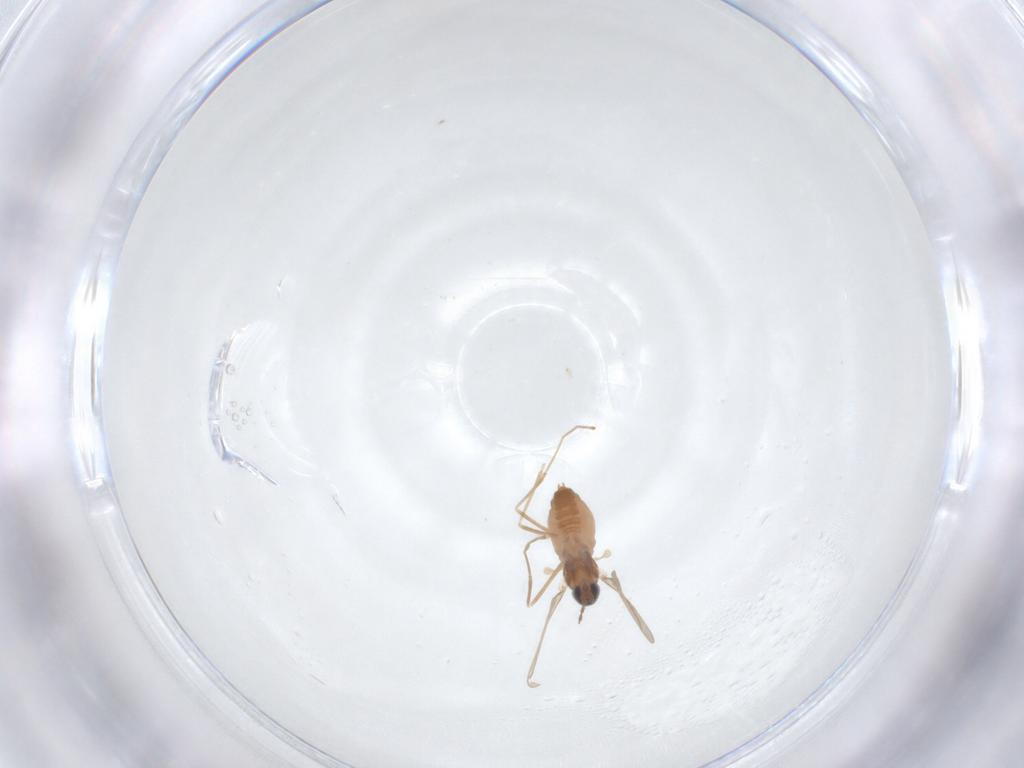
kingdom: Animalia
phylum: Arthropoda
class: Insecta
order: Diptera
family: Cecidomyiidae
